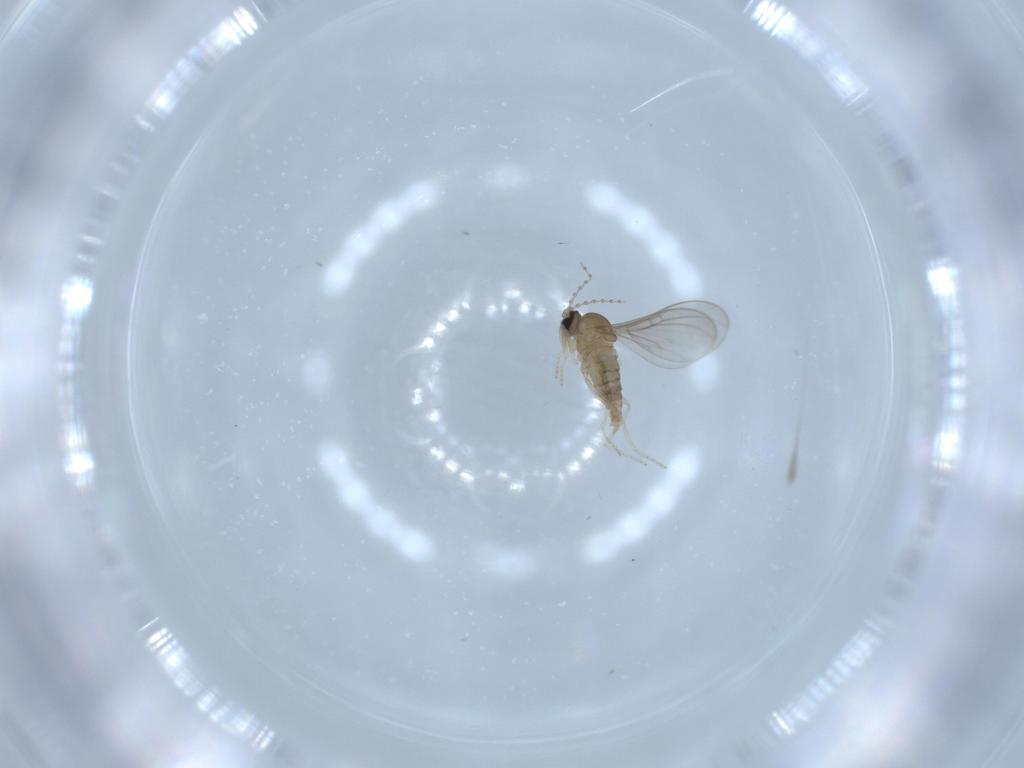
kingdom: Animalia
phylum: Arthropoda
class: Insecta
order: Diptera
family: Cecidomyiidae
